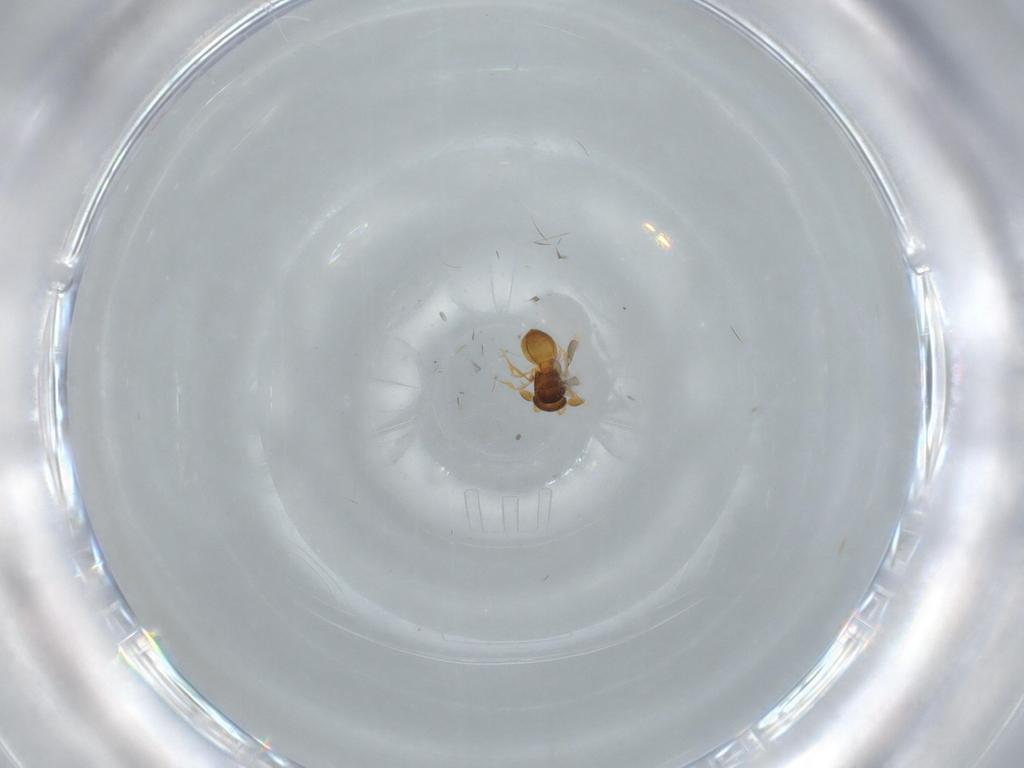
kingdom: Animalia
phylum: Arthropoda
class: Insecta
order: Hymenoptera
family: Scelionidae
